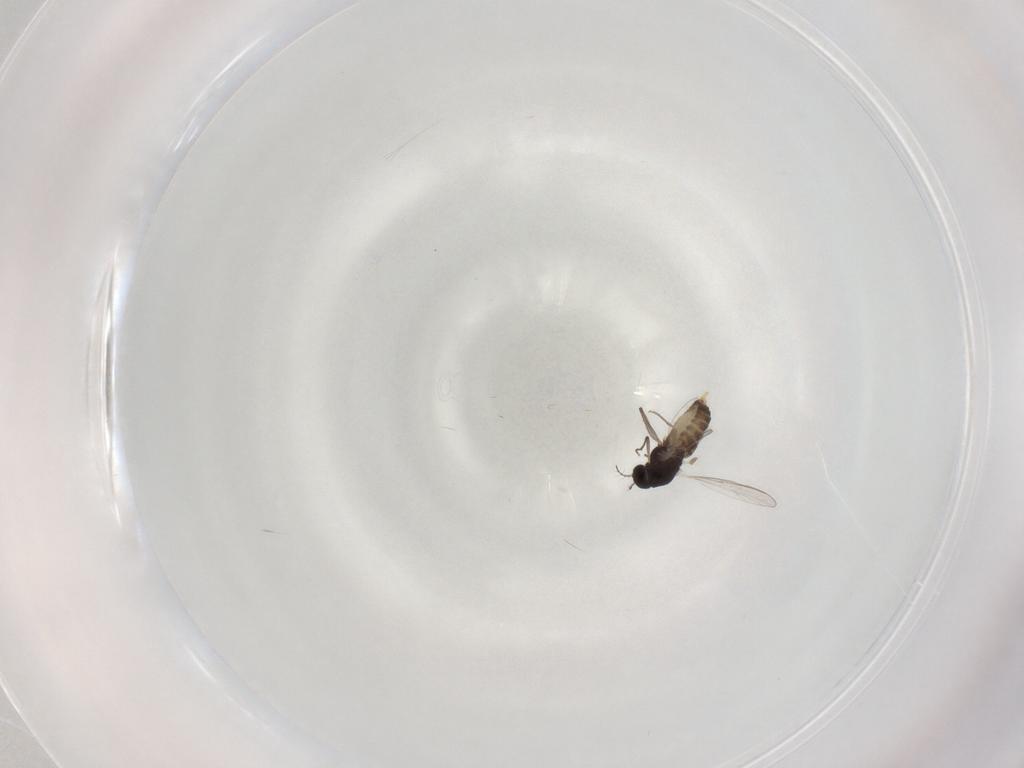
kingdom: Animalia
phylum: Arthropoda
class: Insecta
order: Diptera
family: Chironomidae
